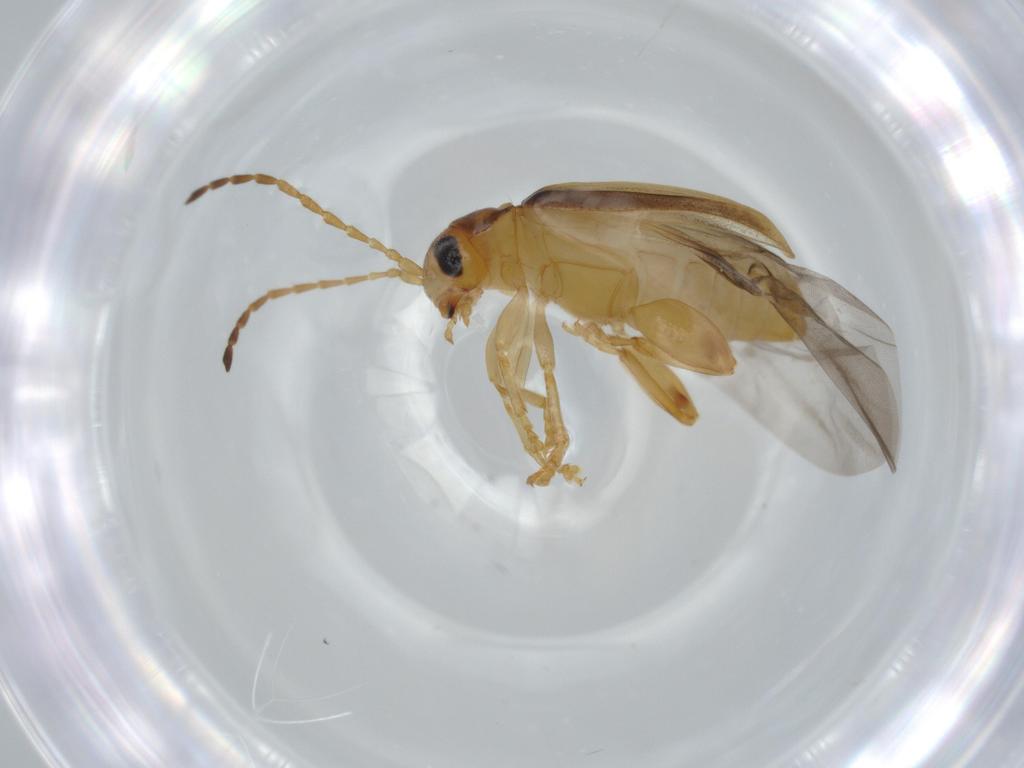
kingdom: Animalia
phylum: Arthropoda
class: Insecta
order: Coleoptera
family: Chrysomelidae
